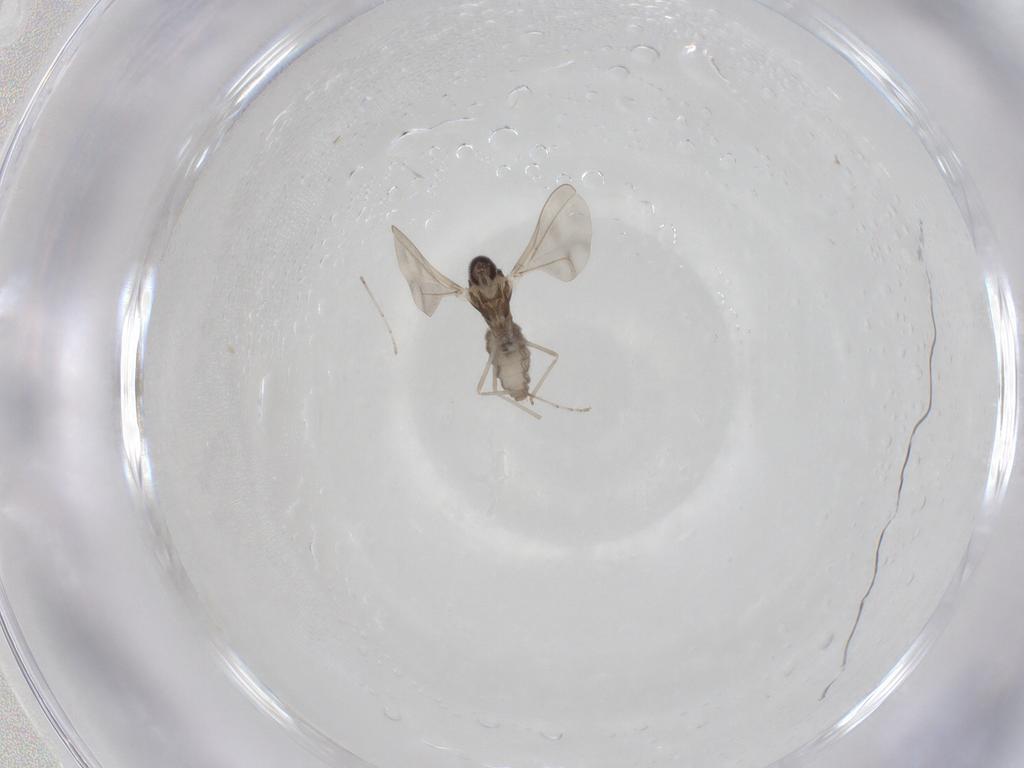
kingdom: Animalia
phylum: Arthropoda
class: Insecta
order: Diptera
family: Cecidomyiidae
